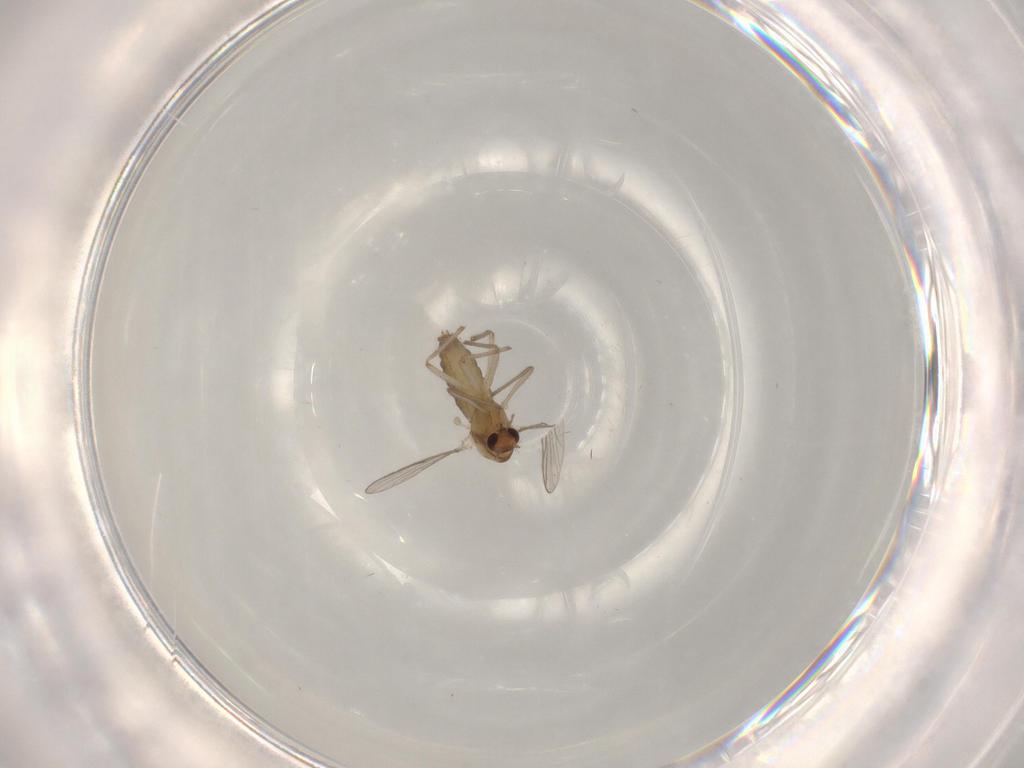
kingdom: Animalia
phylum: Arthropoda
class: Insecta
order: Diptera
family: Chironomidae
